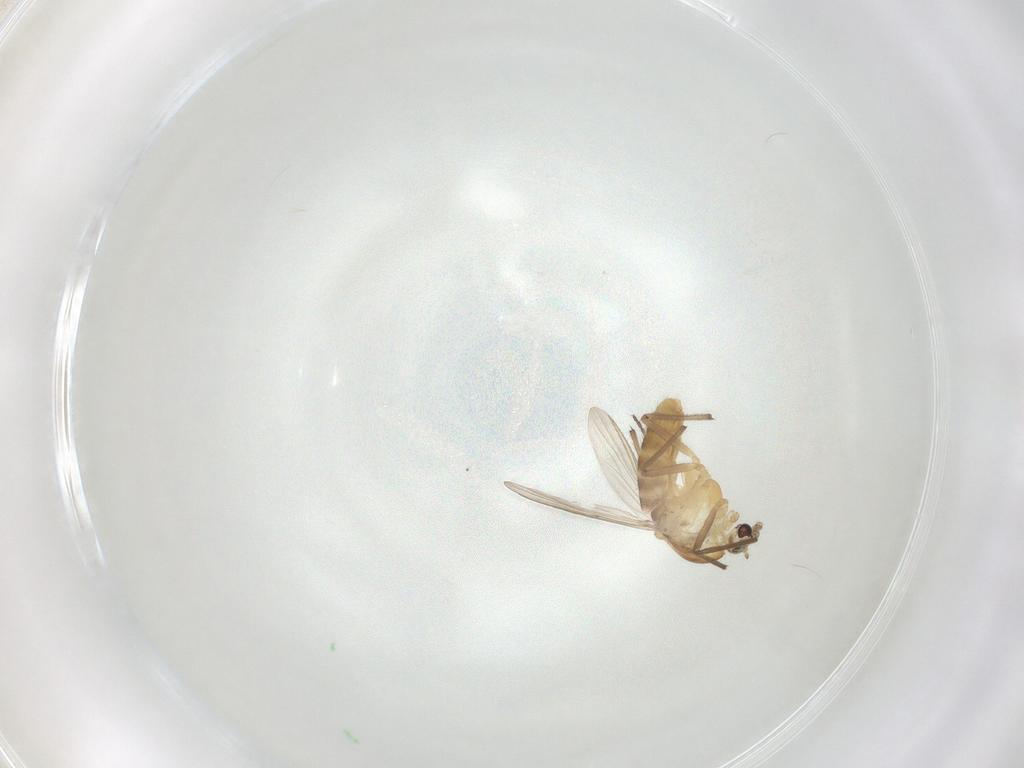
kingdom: Animalia
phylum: Arthropoda
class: Insecta
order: Diptera
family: Chironomidae
